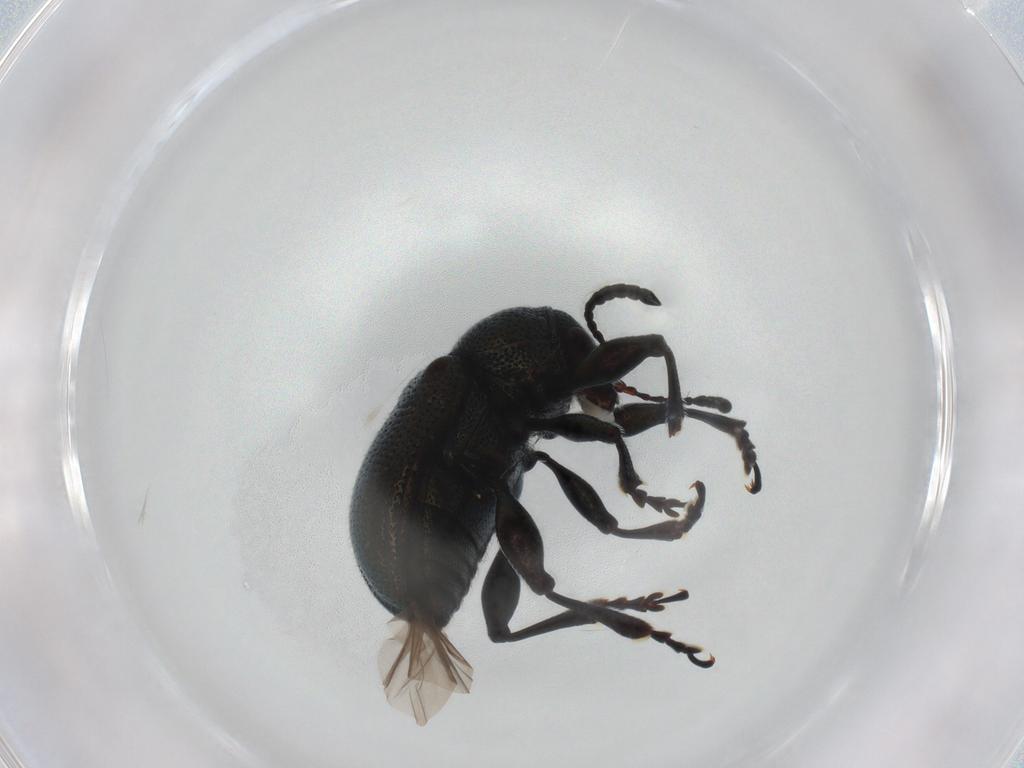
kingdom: Animalia
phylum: Arthropoda
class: Insecta
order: Coleoptera
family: Chrysomelidae
